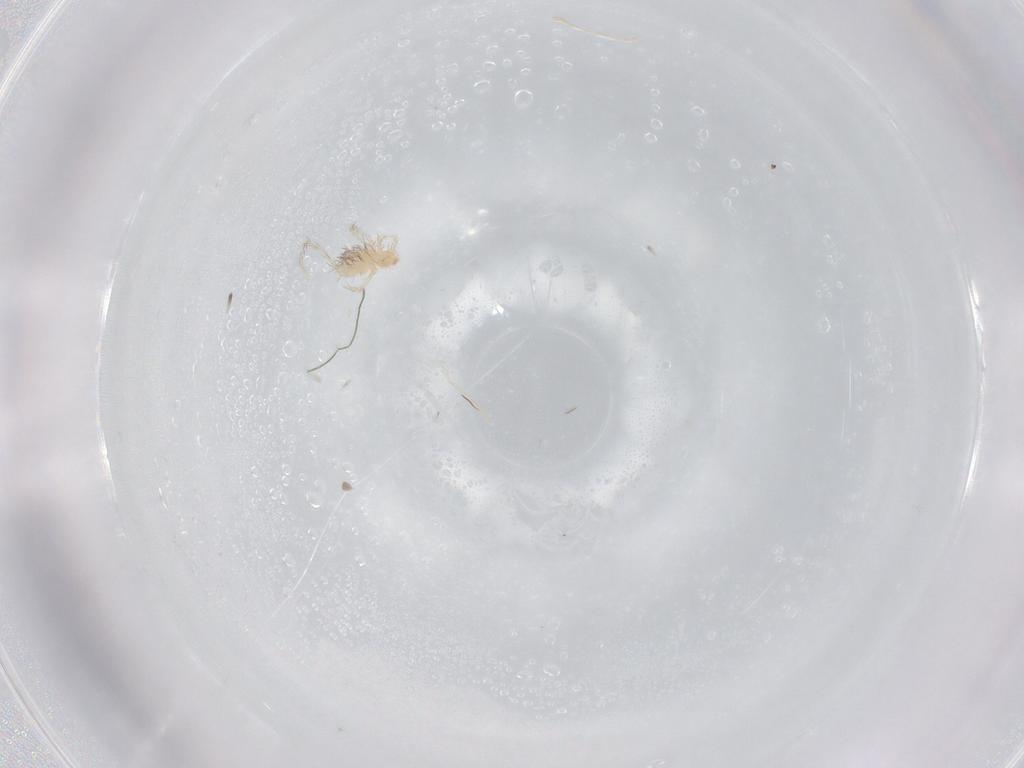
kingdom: Animalia
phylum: Arthropoda
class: Arachnida
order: Trombidiformes
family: Erythraeidae
